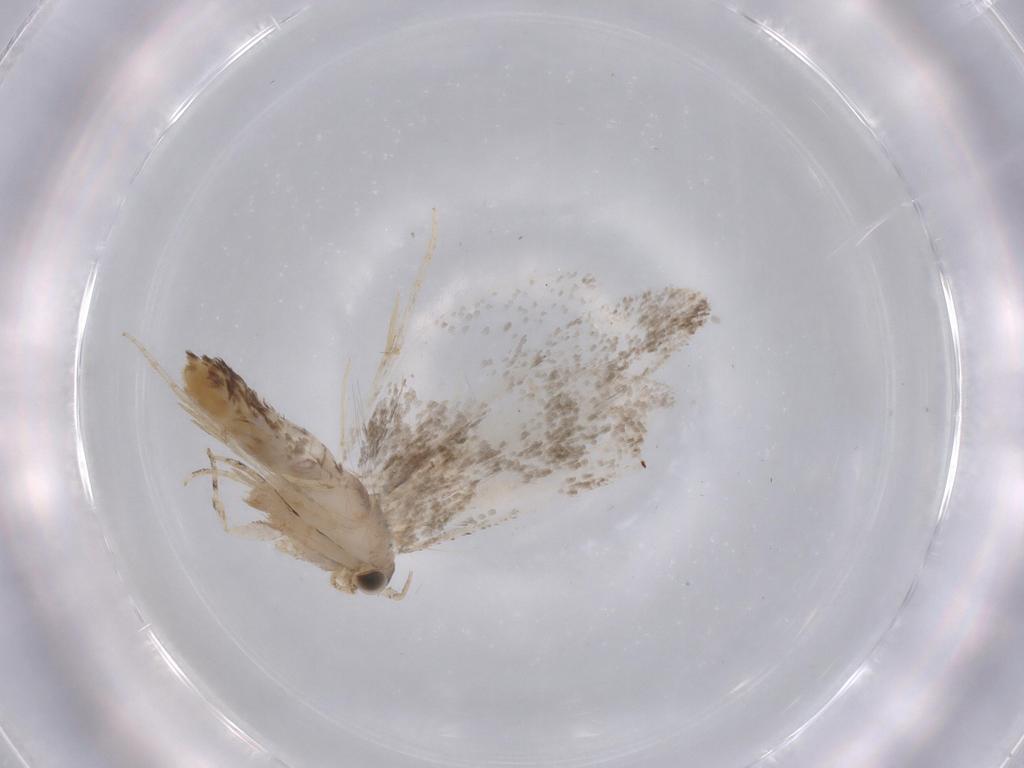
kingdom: Animalia
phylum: Arthropoda
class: Insecta
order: Lepidoptera
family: Tineidae
